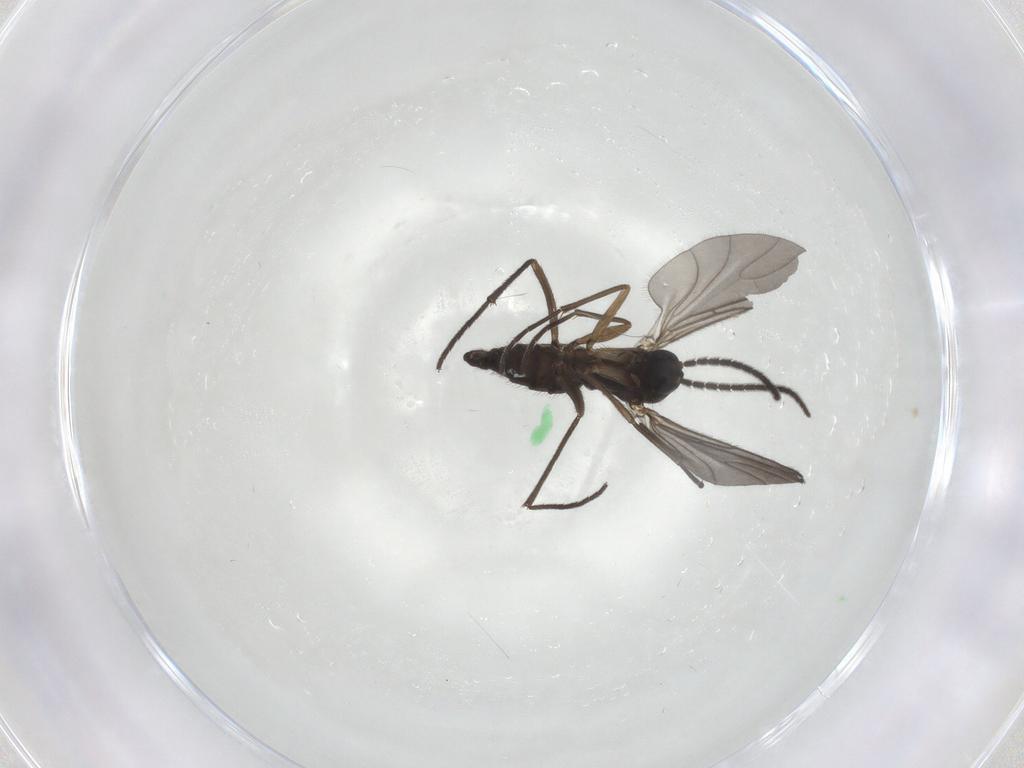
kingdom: Animalia
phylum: Arthropoda
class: Insecta
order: Diptera
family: Sciaridae
